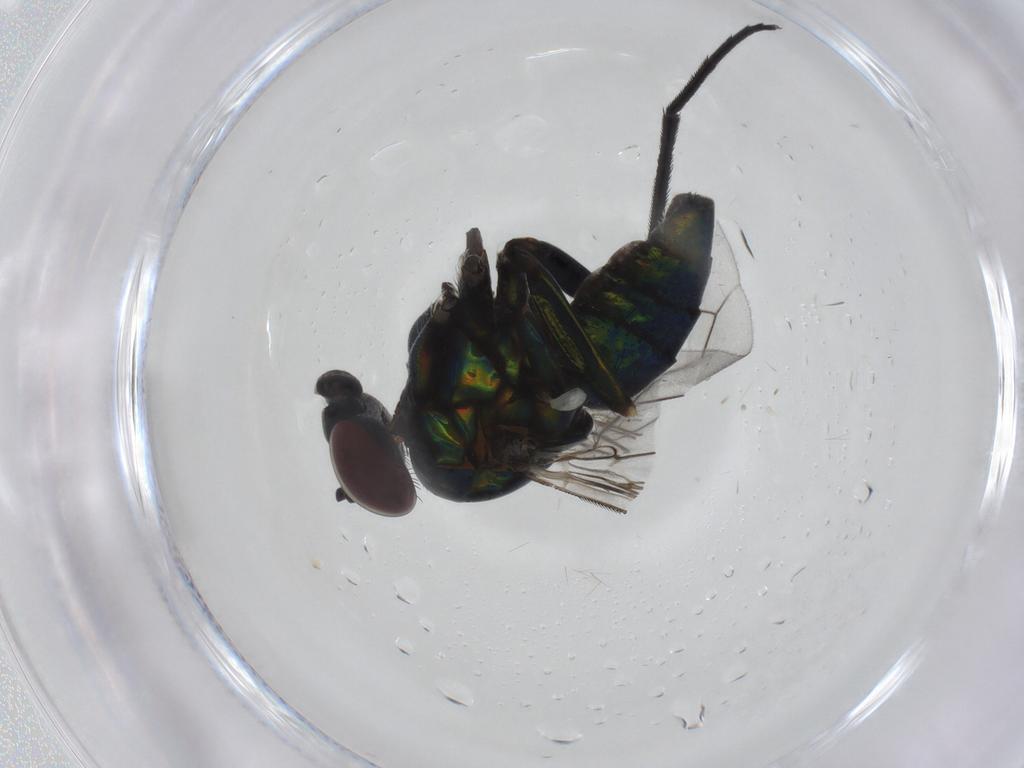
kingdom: Animalia
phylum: Arthropoda
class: Insecta
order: Diptera
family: Dolichopodidae
